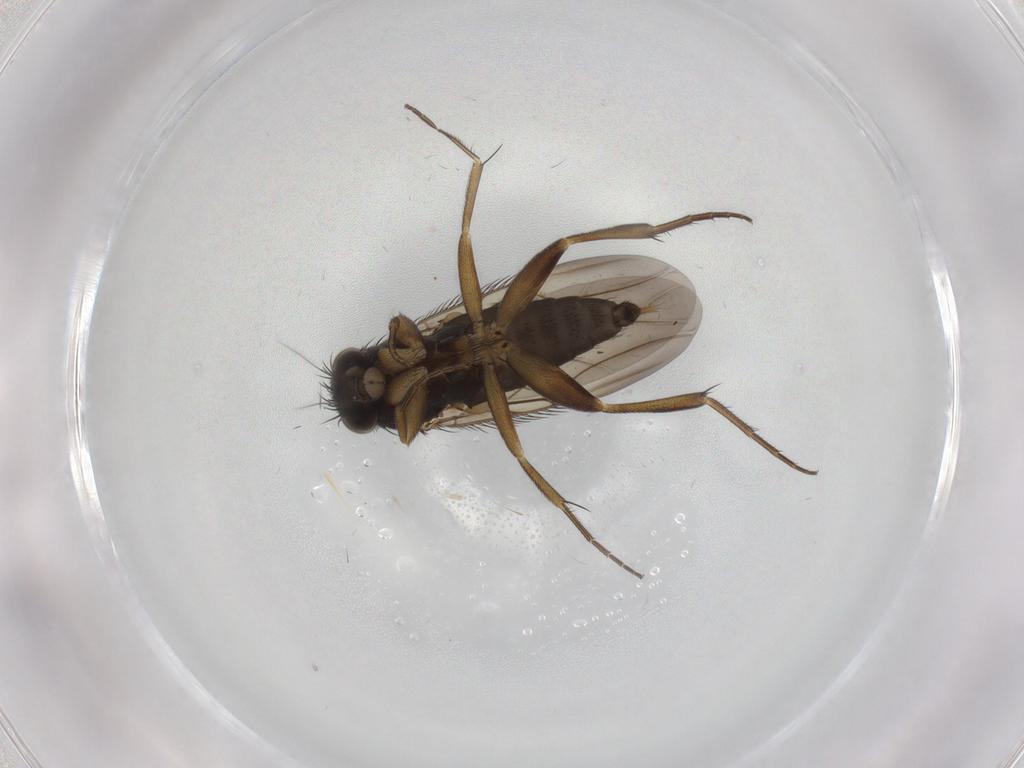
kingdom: Animalia
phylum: Arthropoda
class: Insecta
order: Diptera
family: Phoridae
